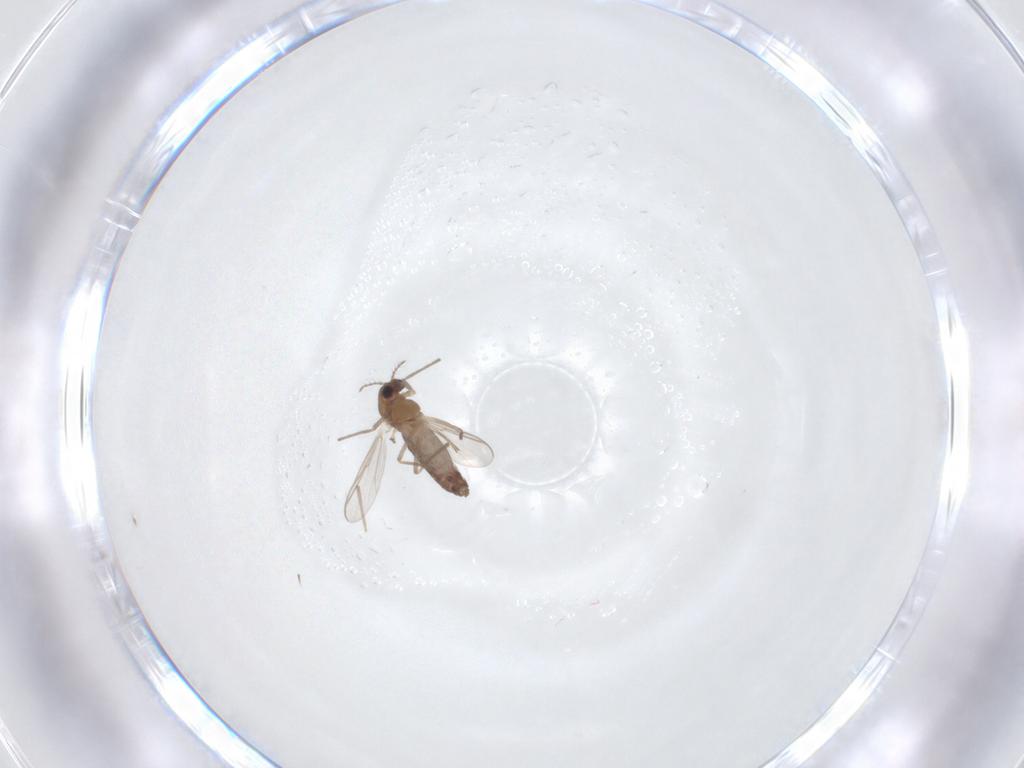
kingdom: Animalia
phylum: Arthropoda
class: Insecta
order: Diptera
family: Chironomidae
